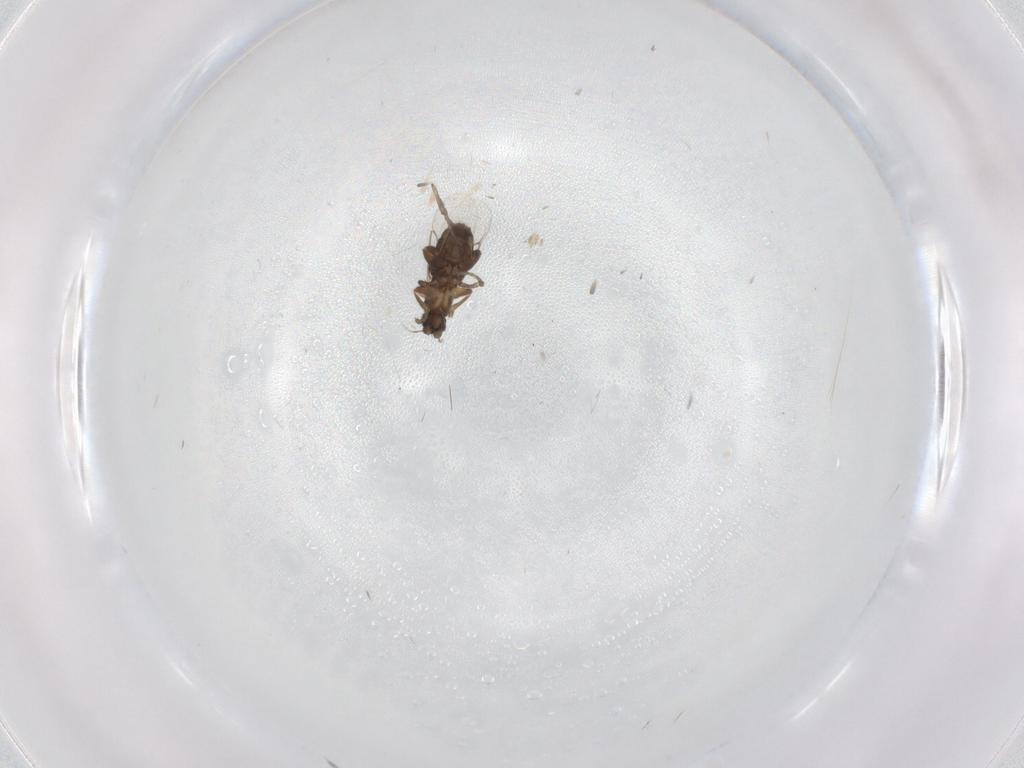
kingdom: Animalia
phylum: Arthropoda
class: Insecta
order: Diptera
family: Phoridae
